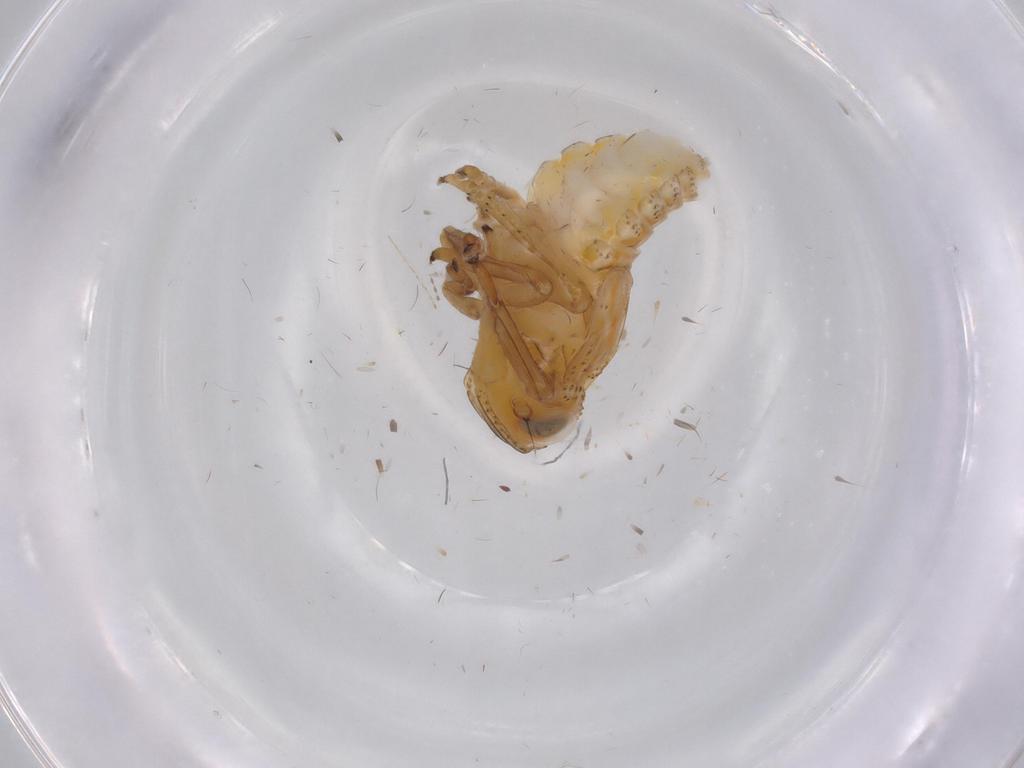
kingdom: Animalia
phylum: Arthropoda
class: Insecta
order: Hemiptera
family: Issidae
